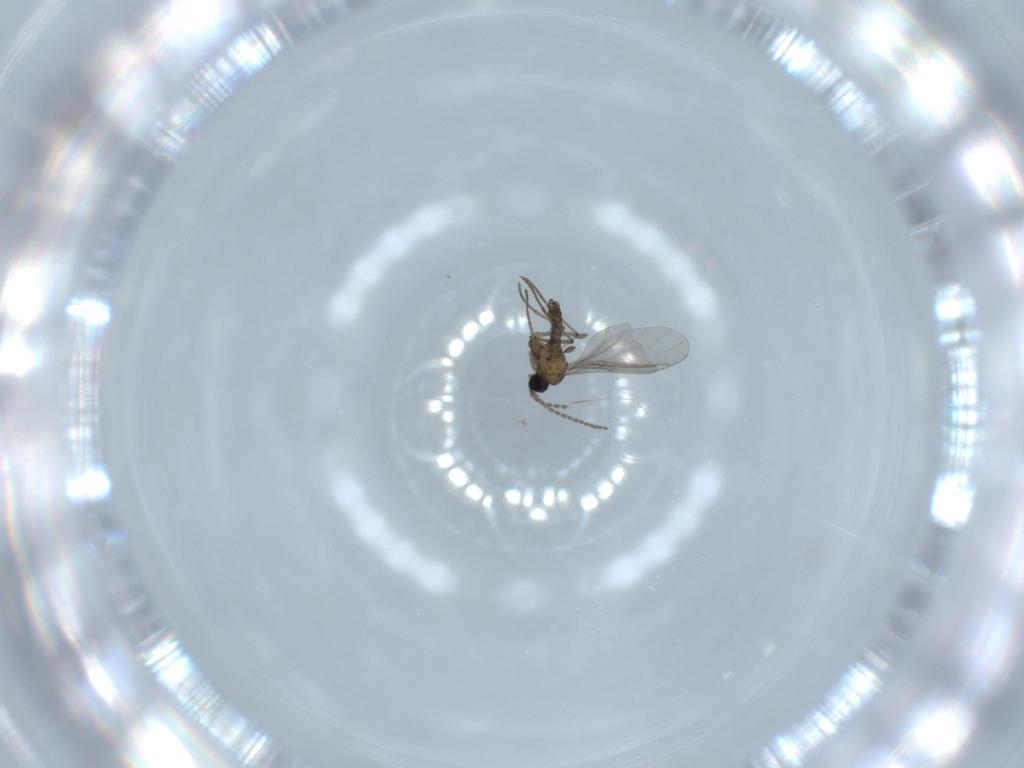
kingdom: Animalia
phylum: Arthropoda
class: Insecta
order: Diptera
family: Sciaridae
